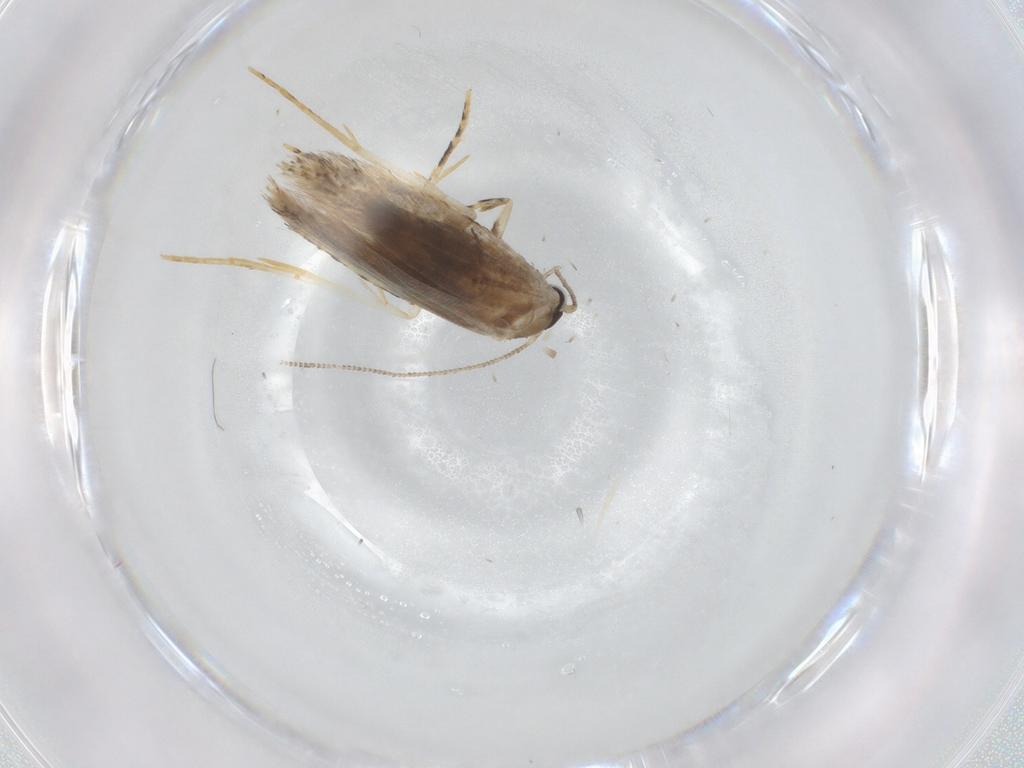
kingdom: Animalia
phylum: Arthropoda
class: Insecta
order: Lepidoptera
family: Tineidae
